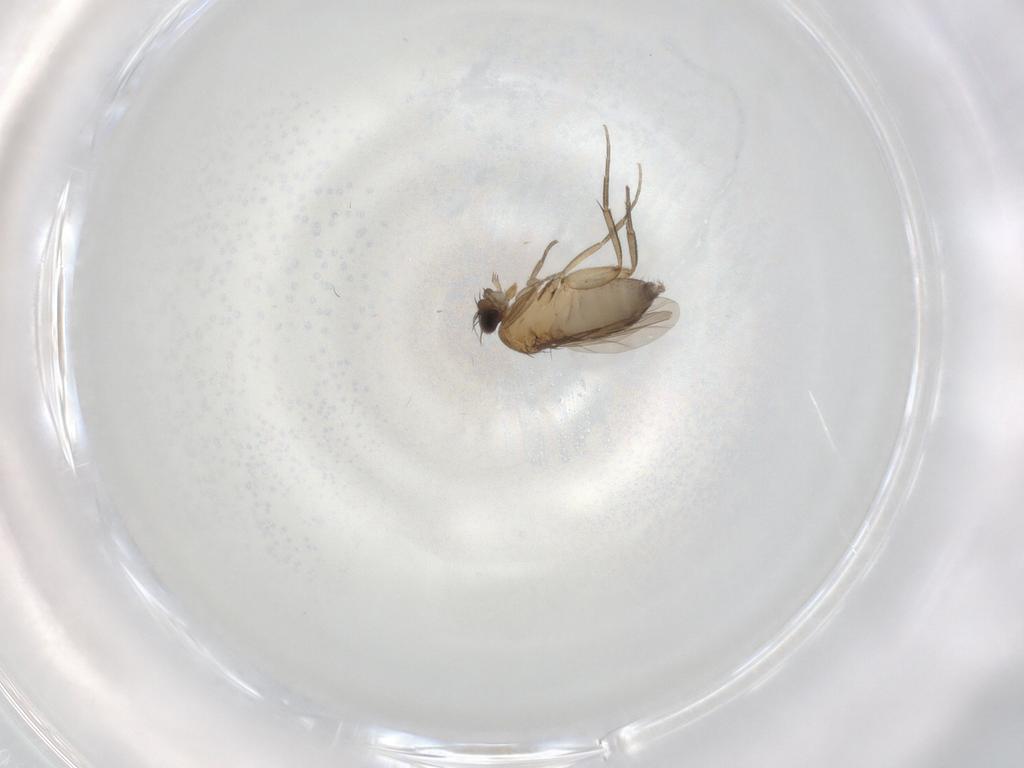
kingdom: Animalia
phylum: Arthropoda
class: Insecta
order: Diptera
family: Phoridae
